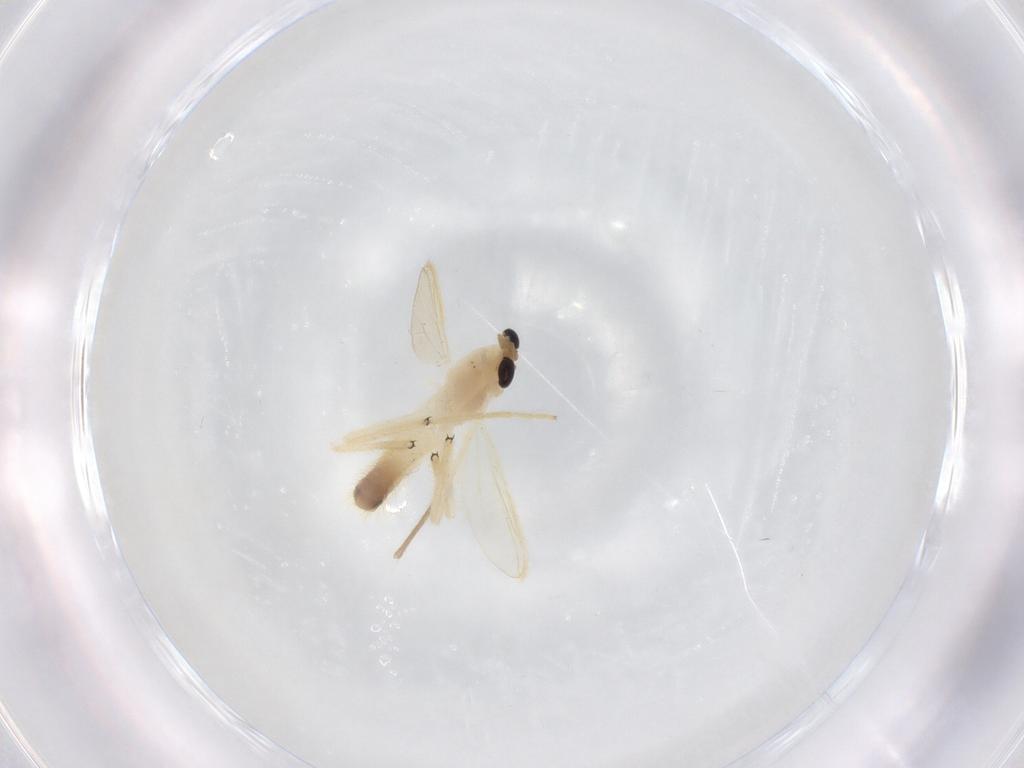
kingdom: Animalia
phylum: Arthropoda
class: Insecta
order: Diptera
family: Chironomidae
